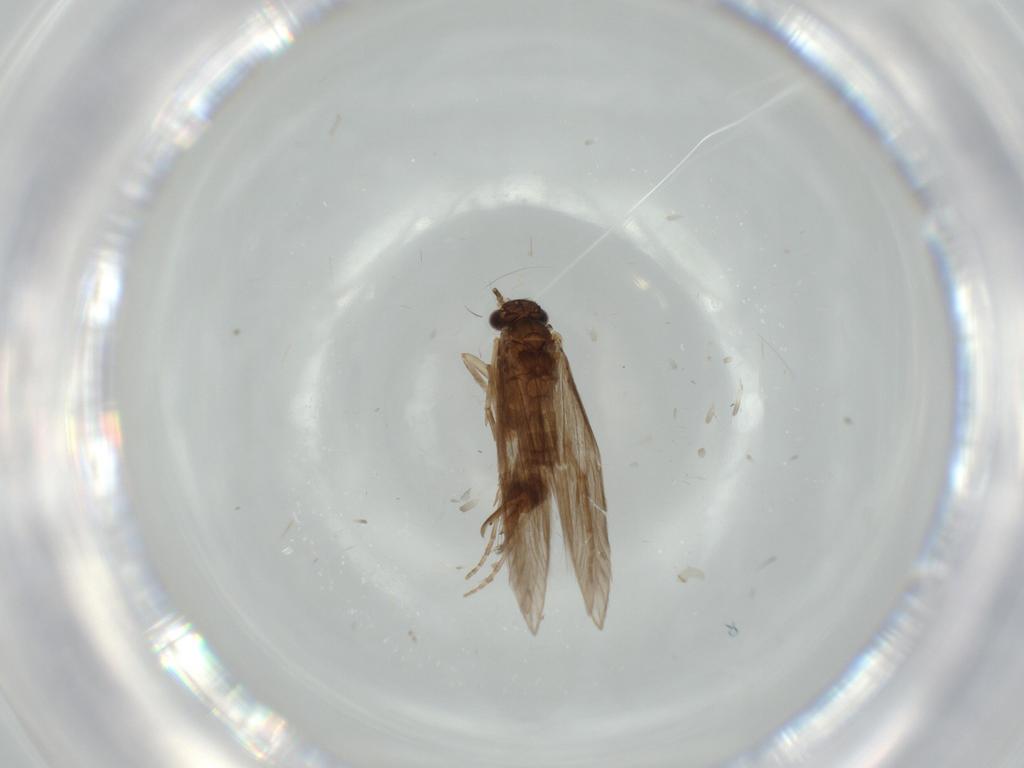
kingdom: Animalia
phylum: Arthropoda
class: Insecta
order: Trichoptera
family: Hydroptilidae
